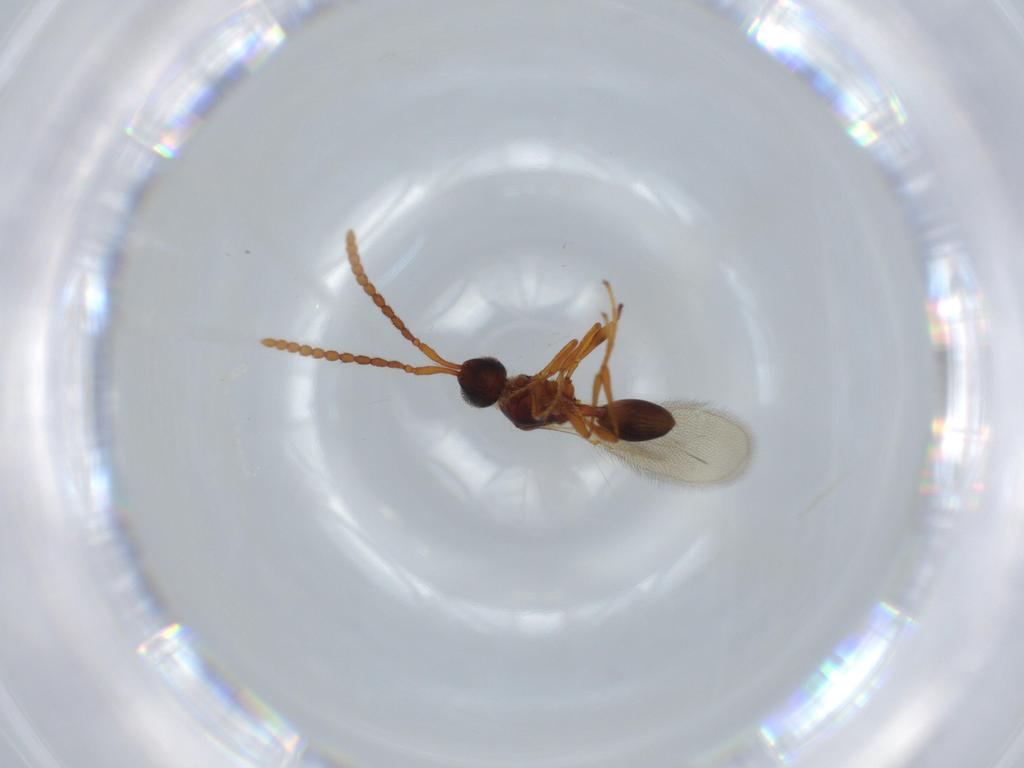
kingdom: Animalia
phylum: Arthropoda
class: Insecta
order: Hymenoptera
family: Diapriidae
